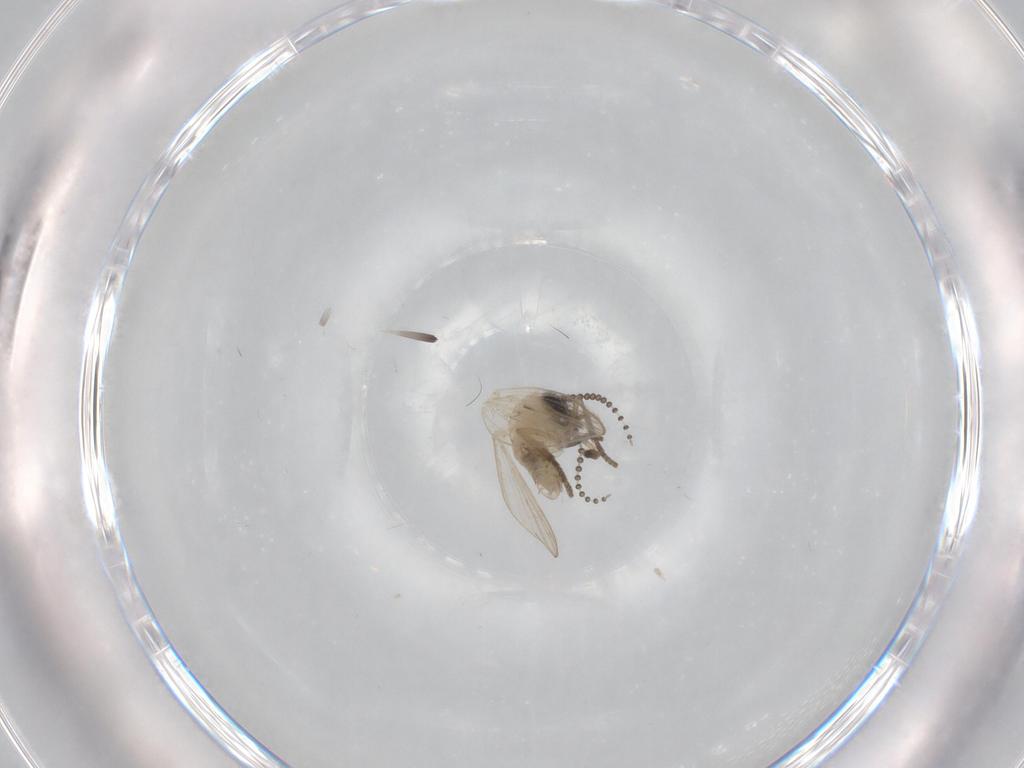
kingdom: Animalia
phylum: Arthropoda
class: Insecta
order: Diptera
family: Psychodidae
